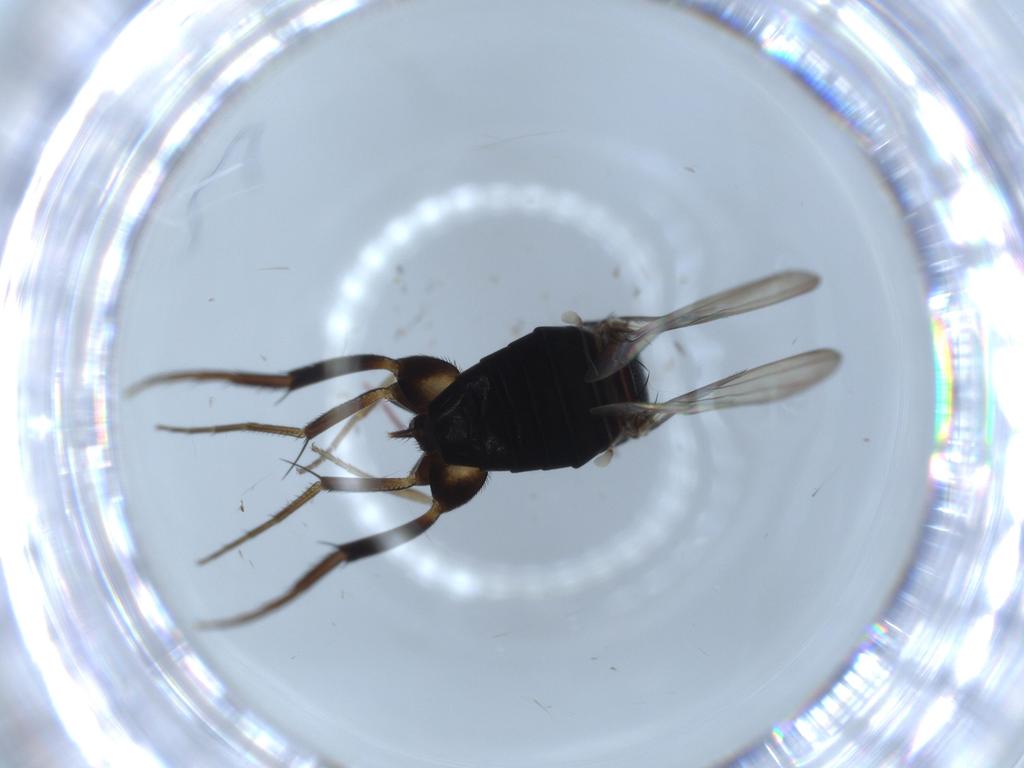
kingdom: Animalia
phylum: Arthropoda
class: Insecta
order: Diptera
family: Phoridae
